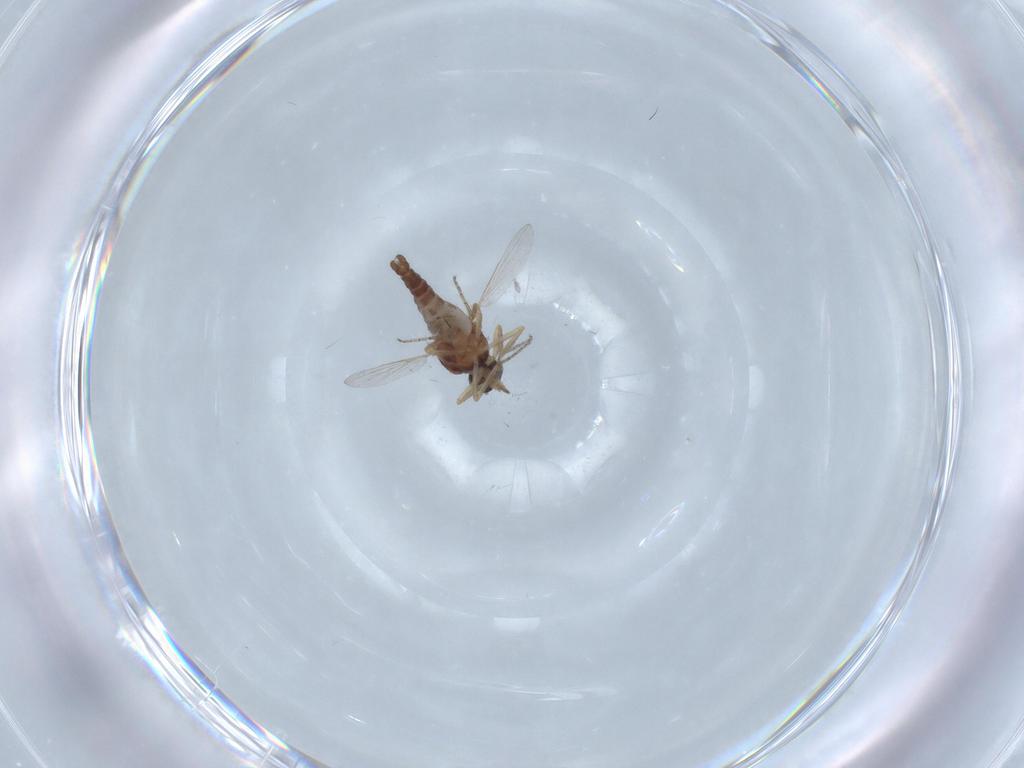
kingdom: Animalia
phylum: Arthropoda
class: Insecta
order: Diptera
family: Ceratopogonidae
